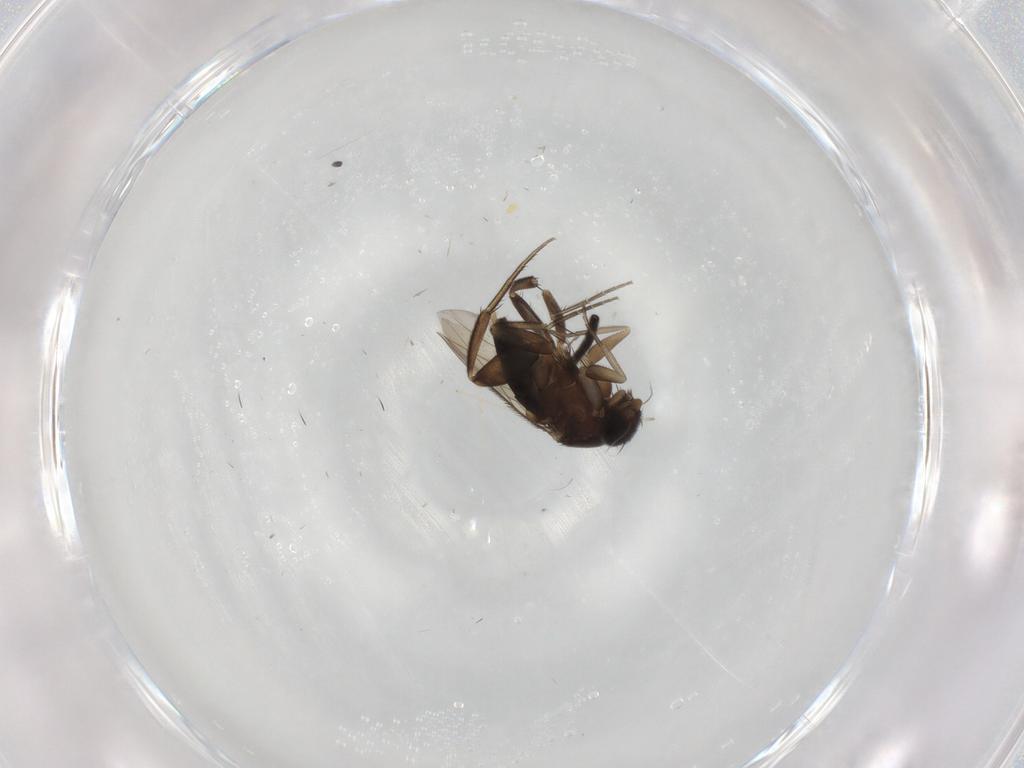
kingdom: Animalia
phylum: Arthropoda
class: Insecta
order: Diptera
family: Phoridae
